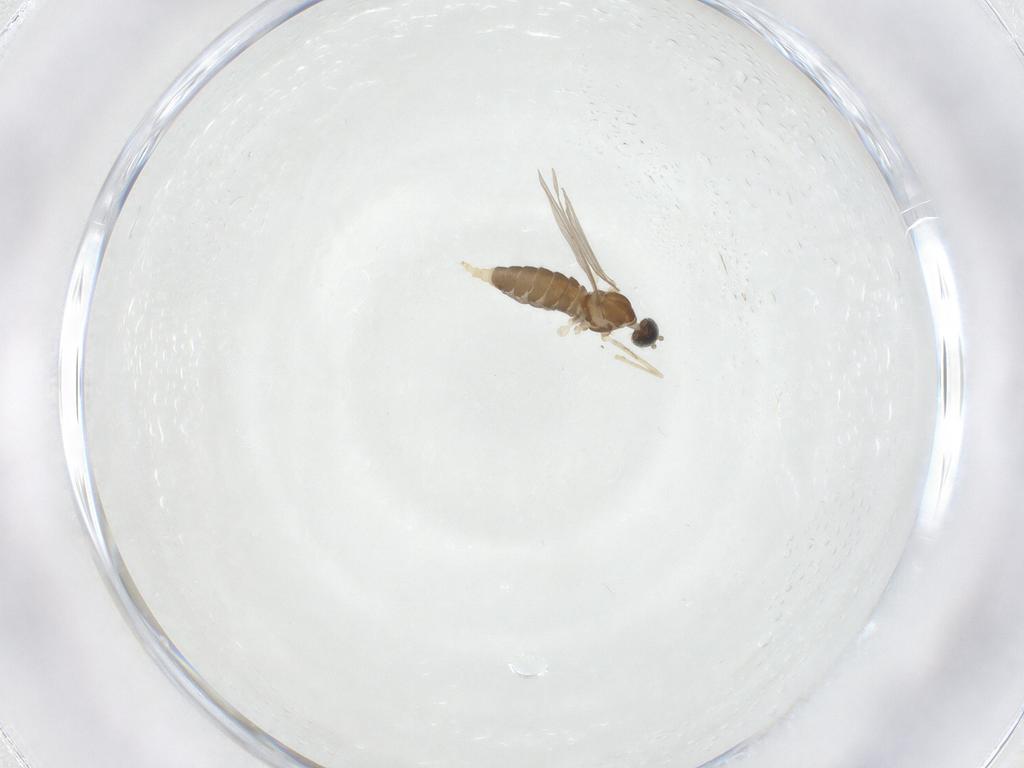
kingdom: Animalia
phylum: Arthropoda
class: Insecta
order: Diptera
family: Cecidomyiidae
